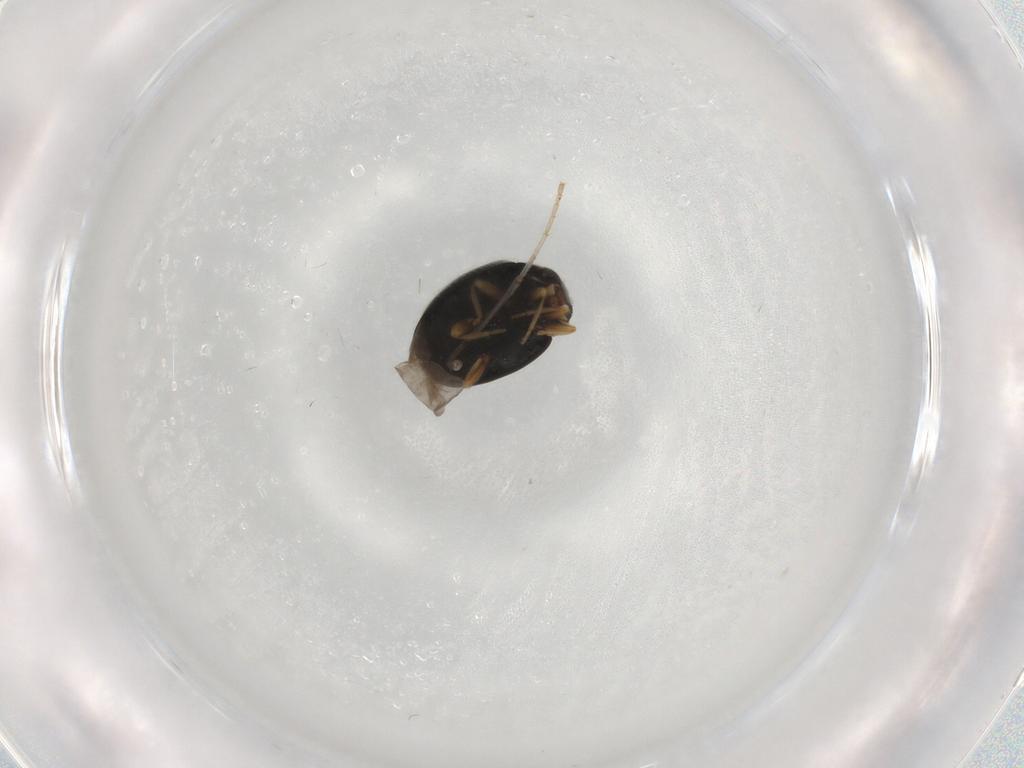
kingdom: Animalia
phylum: Arthropoda
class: Insecta
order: Coleoptera
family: Coccinellidae
